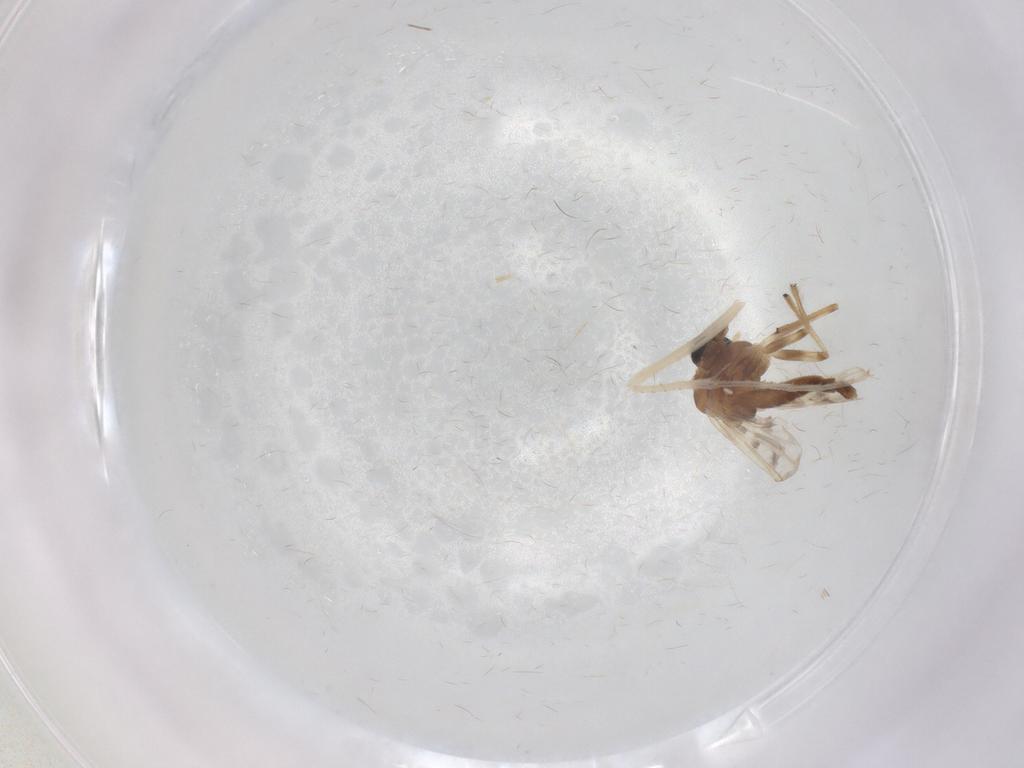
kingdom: Animalia
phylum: Arthropoda
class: Insecta
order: Diptera
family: Chironomidae
